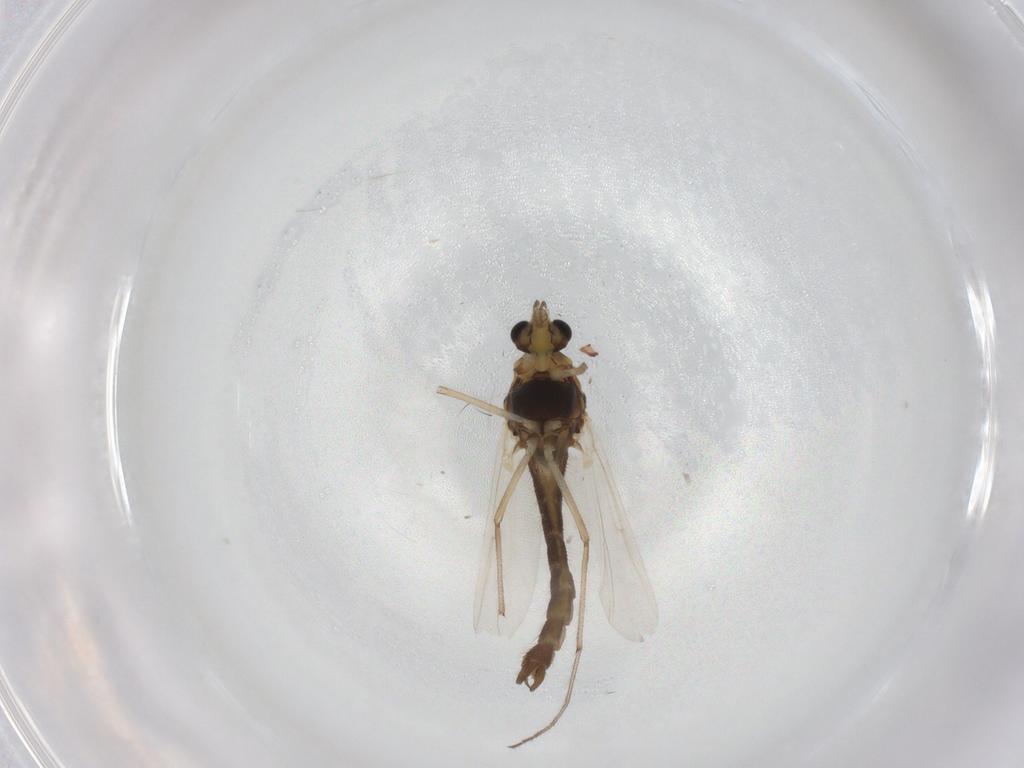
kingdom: Animalia
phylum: Arthropoda
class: Insecta
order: Diptera
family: Chironomidae
